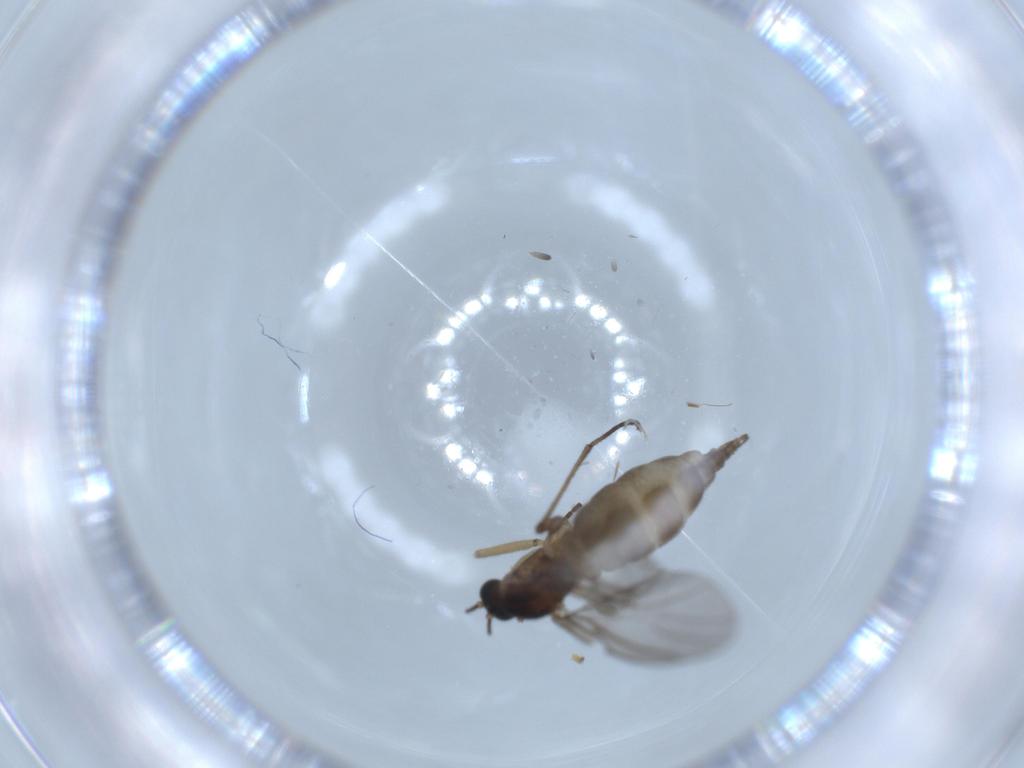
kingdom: Animalia
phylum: Arthropoda
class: Insecta
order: Diptera
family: Sciaridae
